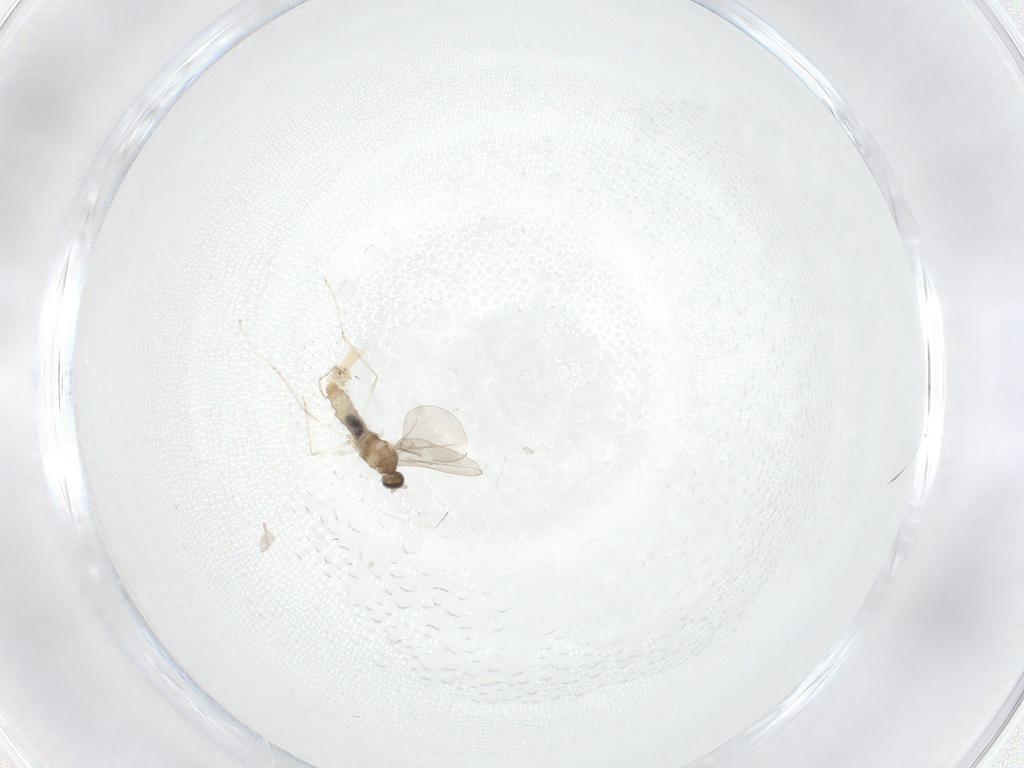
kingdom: Animalia
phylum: Arthropoda
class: Insecta
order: Diptera
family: Cecidomyiidae
